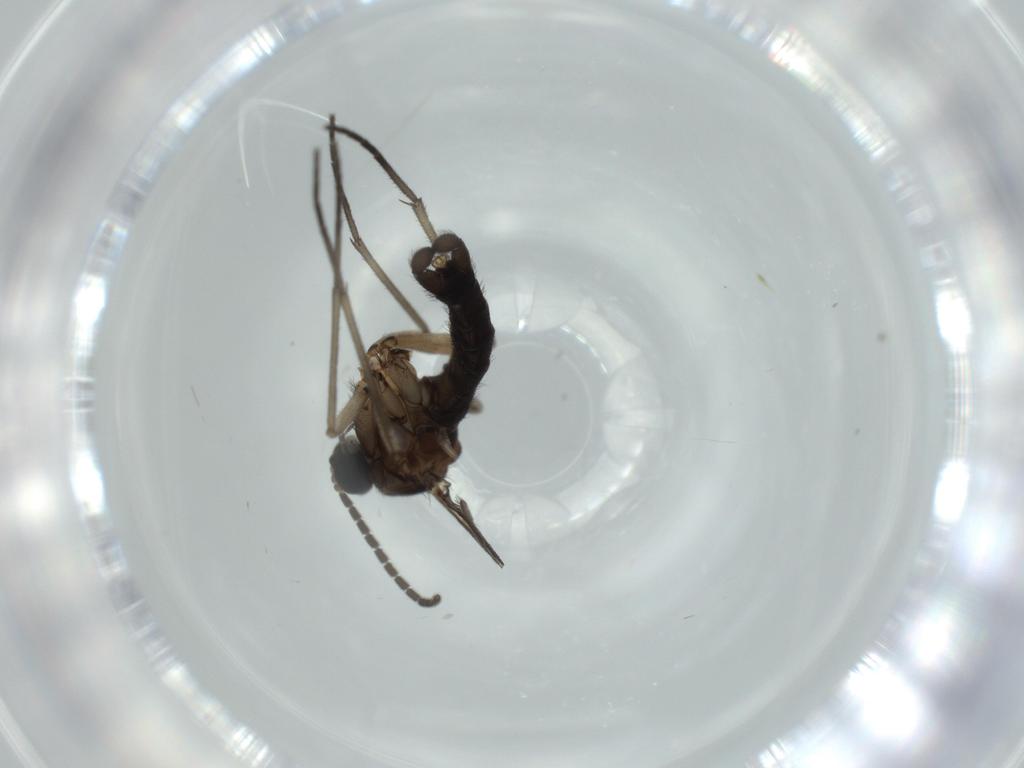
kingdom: Animalia
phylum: Arthropoda
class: Insecta
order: Diptera
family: Sciaridae
